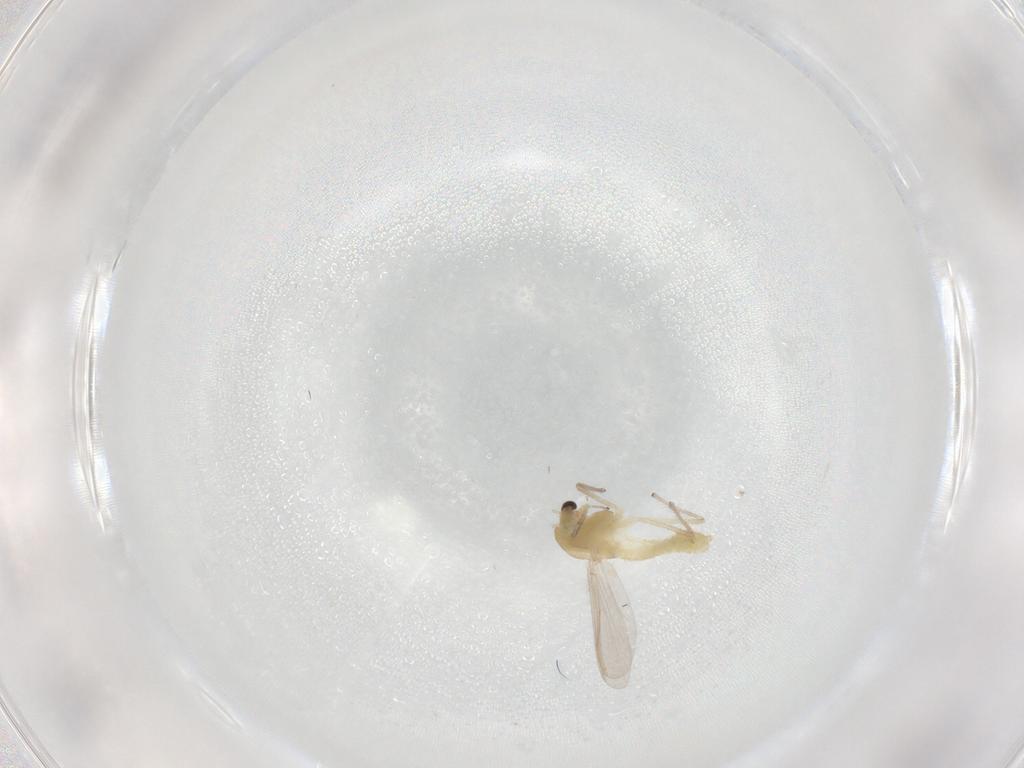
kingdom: Animalia
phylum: Arthropoda
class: Insecta
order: Diptera
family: Chironomidae
